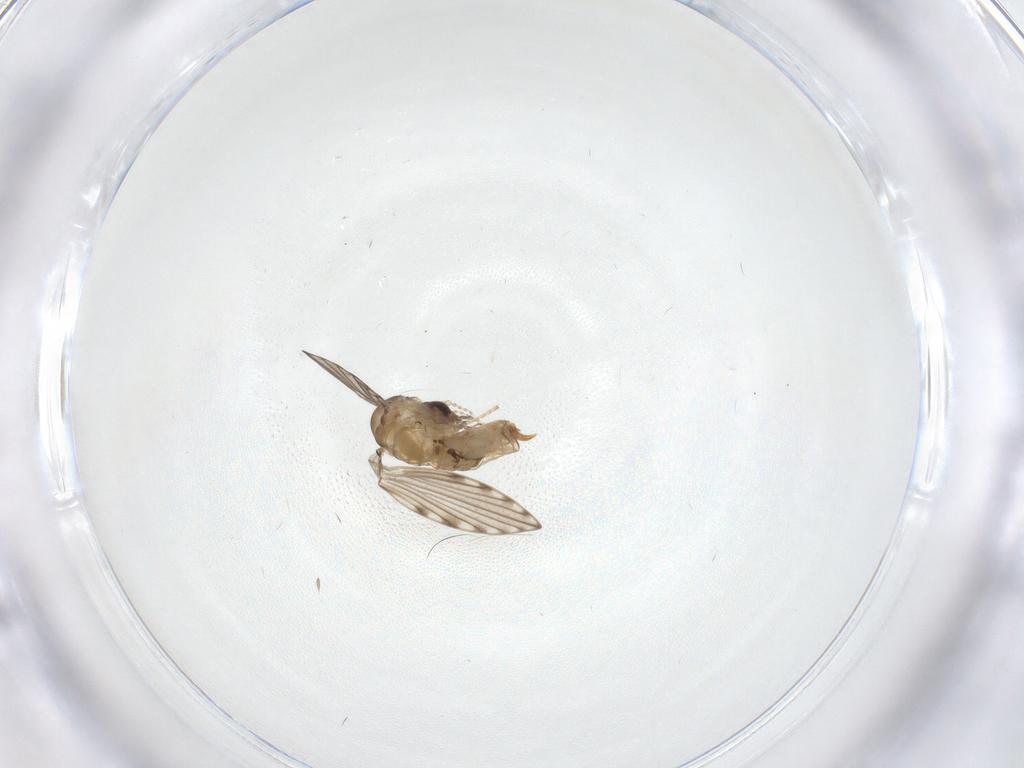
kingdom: Animalia
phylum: Arthropoda
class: Insecta
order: Diptera
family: Psychodidae
